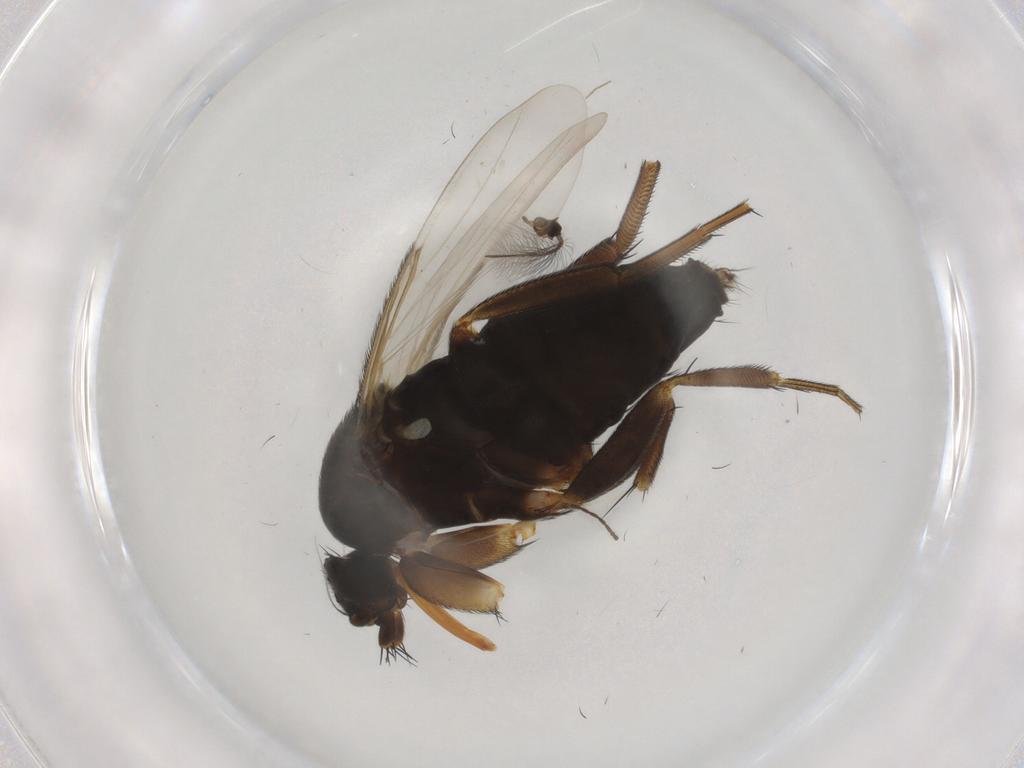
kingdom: Animalia
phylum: Arthropoda
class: Insecta
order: Diptera
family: Phoridae
